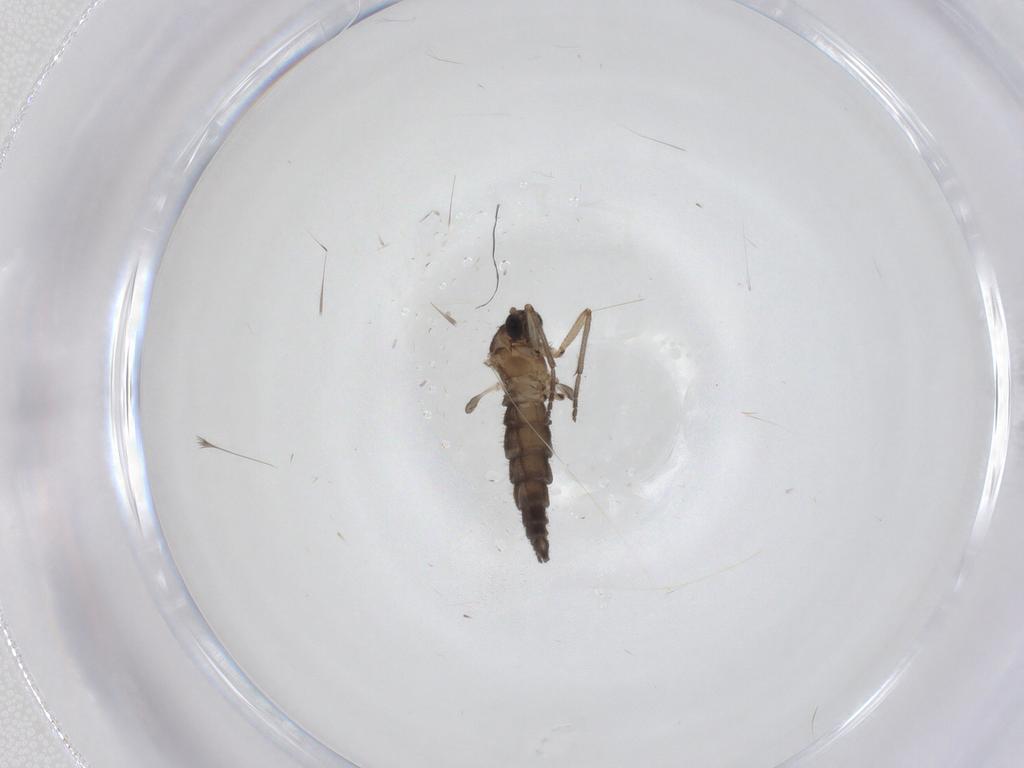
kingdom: Animalia
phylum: Arthropoda
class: Insecta
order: Diptera
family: Sciaridae
